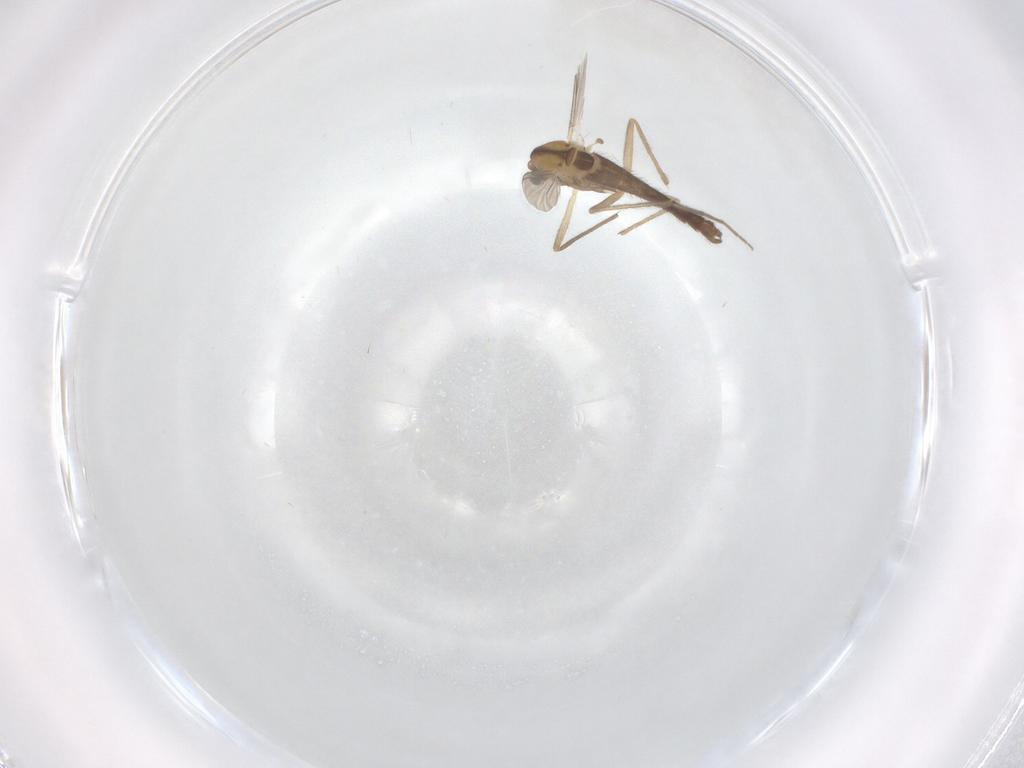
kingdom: Animalia
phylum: Arthropoda
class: Insecta
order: Diptera
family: Chironomidae
